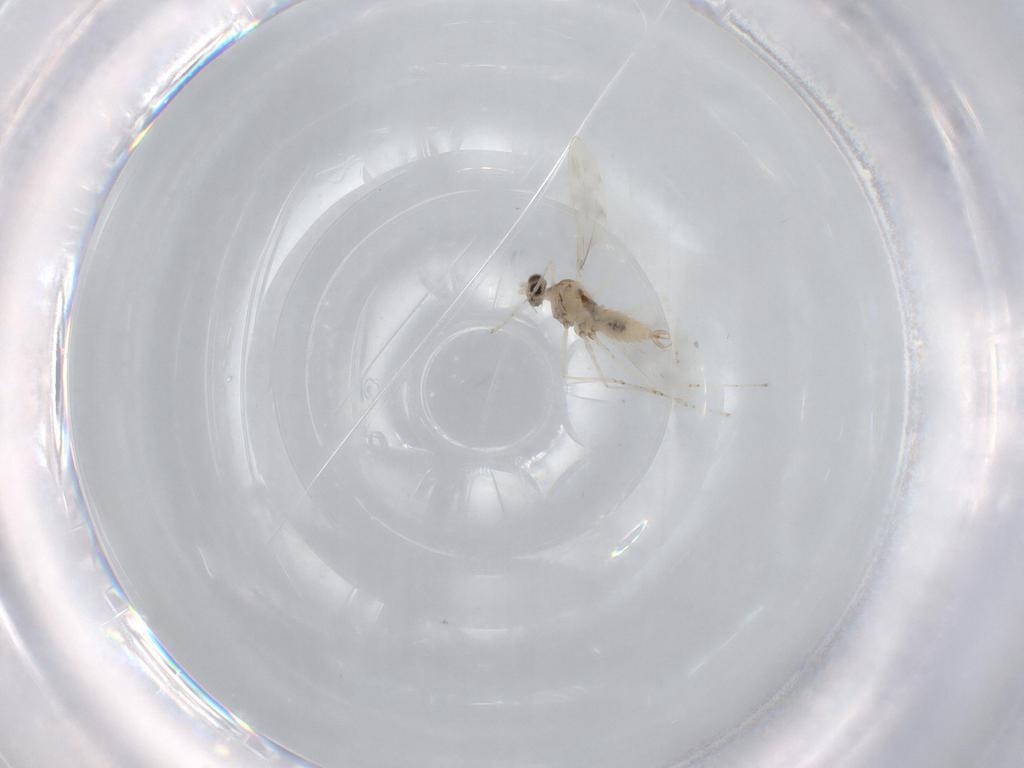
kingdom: Animalia
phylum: Arthropoda
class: Insecta
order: Diptera
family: Cecidomyiidae
